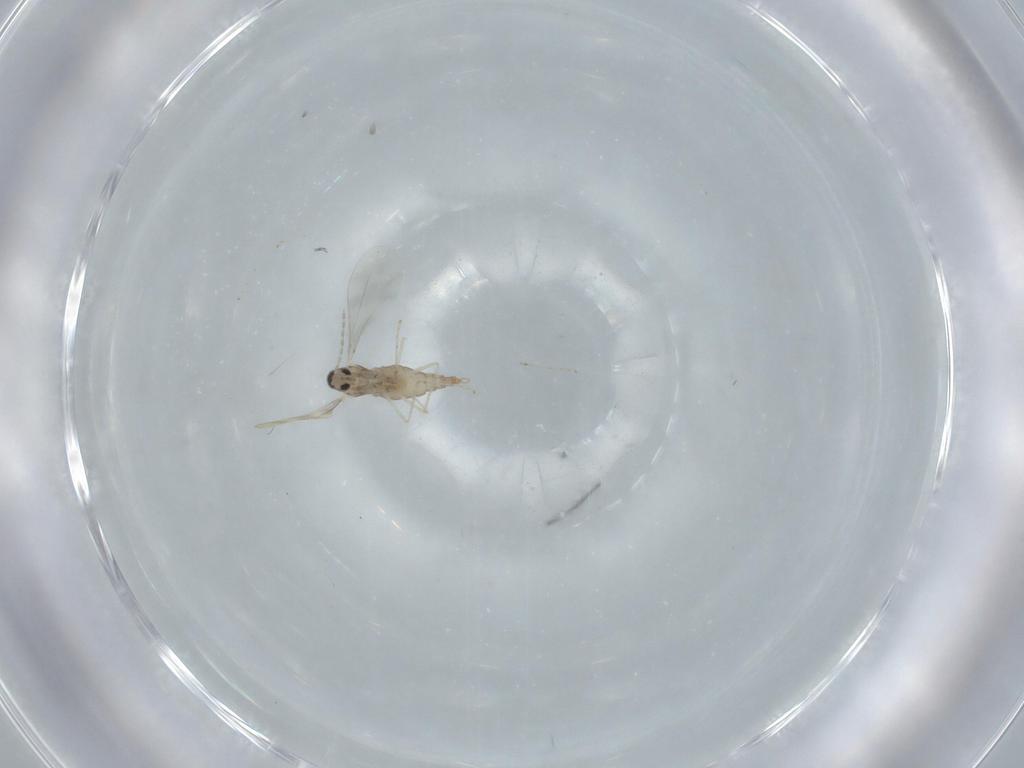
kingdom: Animalia
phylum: Arthropoda
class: Insecta
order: Diptera
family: Cecidomyiidae
